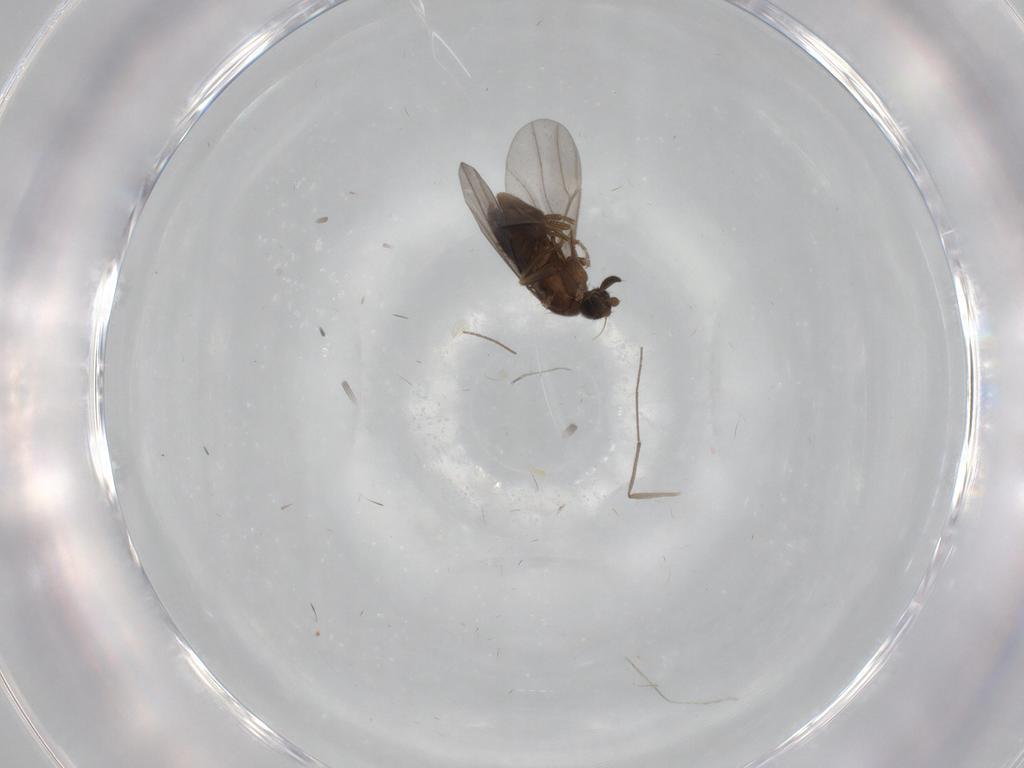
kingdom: Animalia
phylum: Arthropoda
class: Insecta
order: Diptera
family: Phoridae
